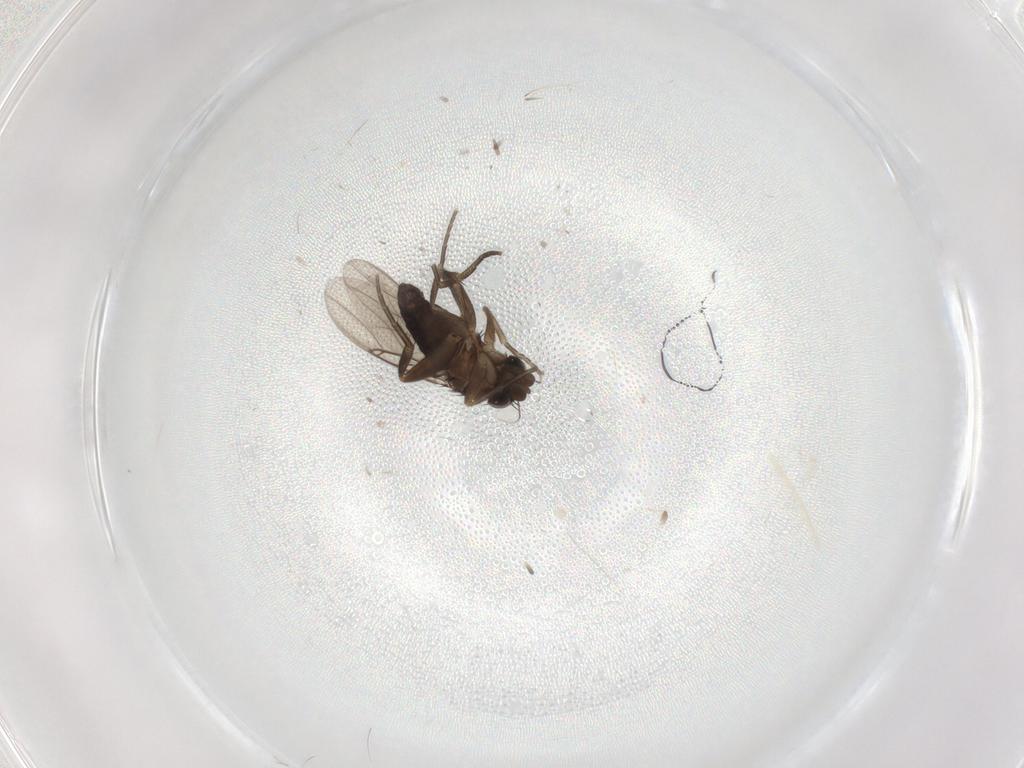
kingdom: Animalia
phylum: Arthropoda
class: Insecta
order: Diptera
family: Phoridae
